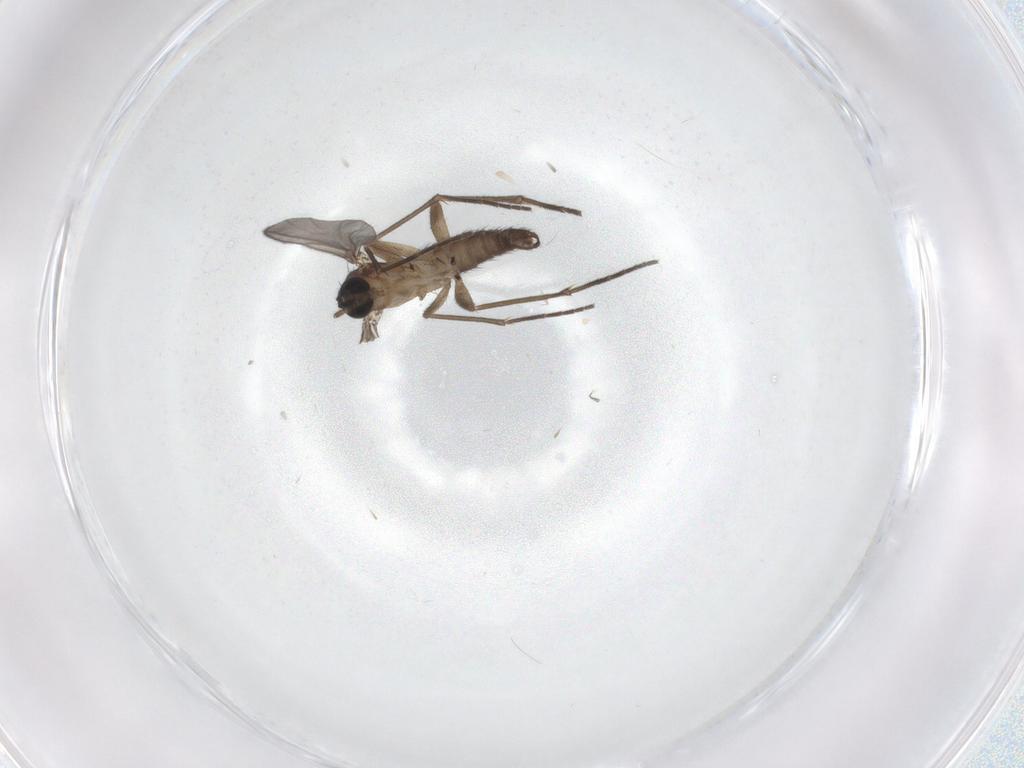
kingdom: Animalia
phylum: Arthropoda
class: Insecta
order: Diptera
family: Sciaridae
